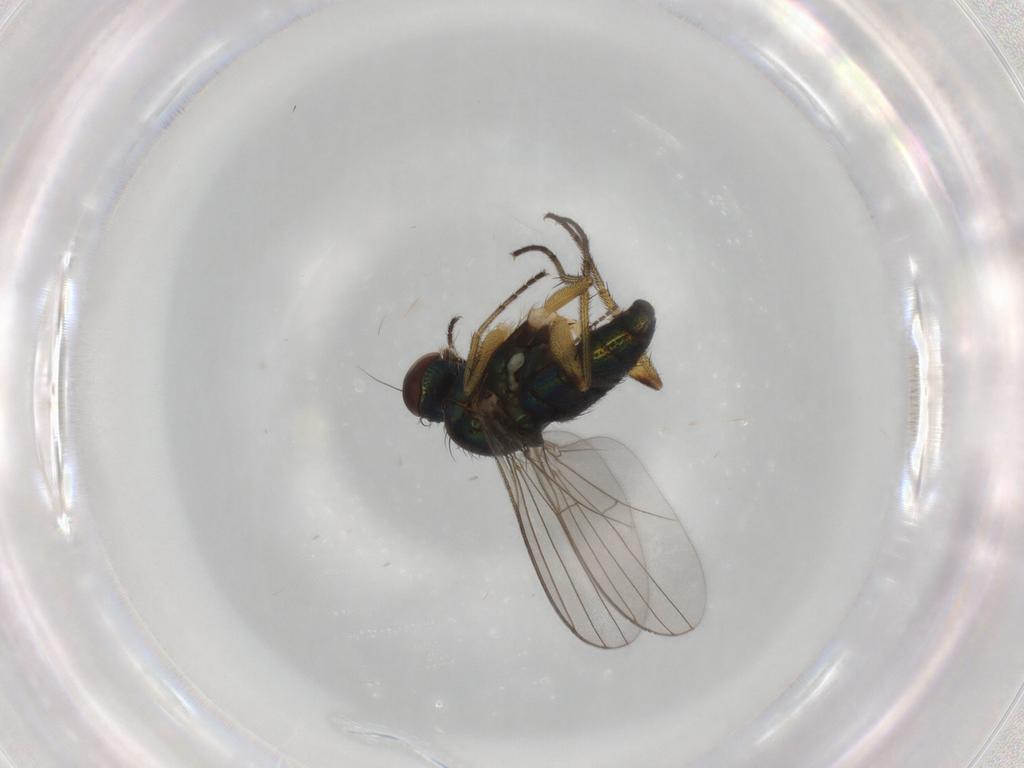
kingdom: Animalia
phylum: Arthropoda
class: Insecta
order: Diptera
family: Sciaridae
